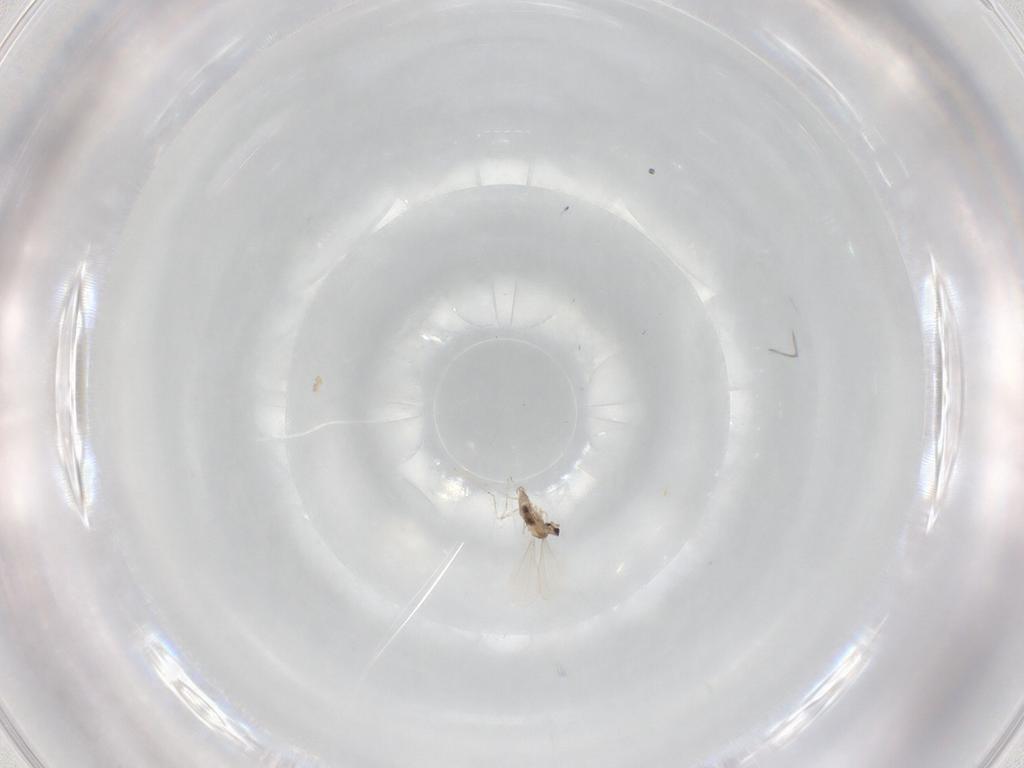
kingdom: Animalia
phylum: Arthropoda
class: Insecta
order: Diptera
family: Cecidomyiidae
